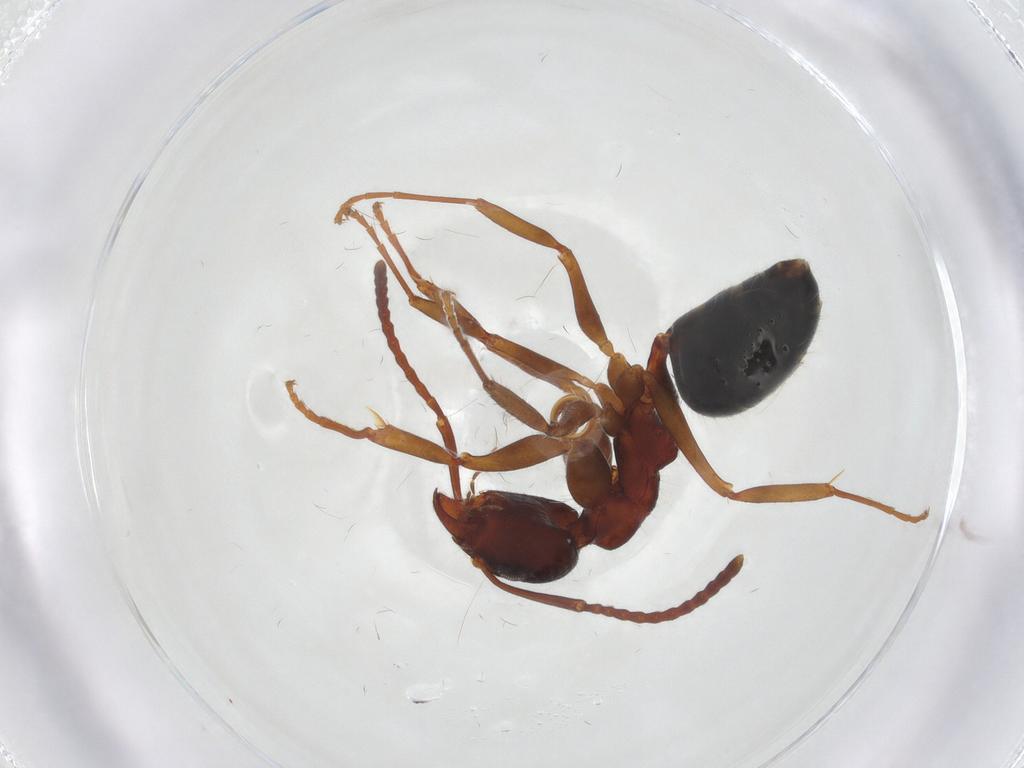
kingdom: Animalia
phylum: Arthropoda
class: Insecta
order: Hymenoptera
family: Formicidae
